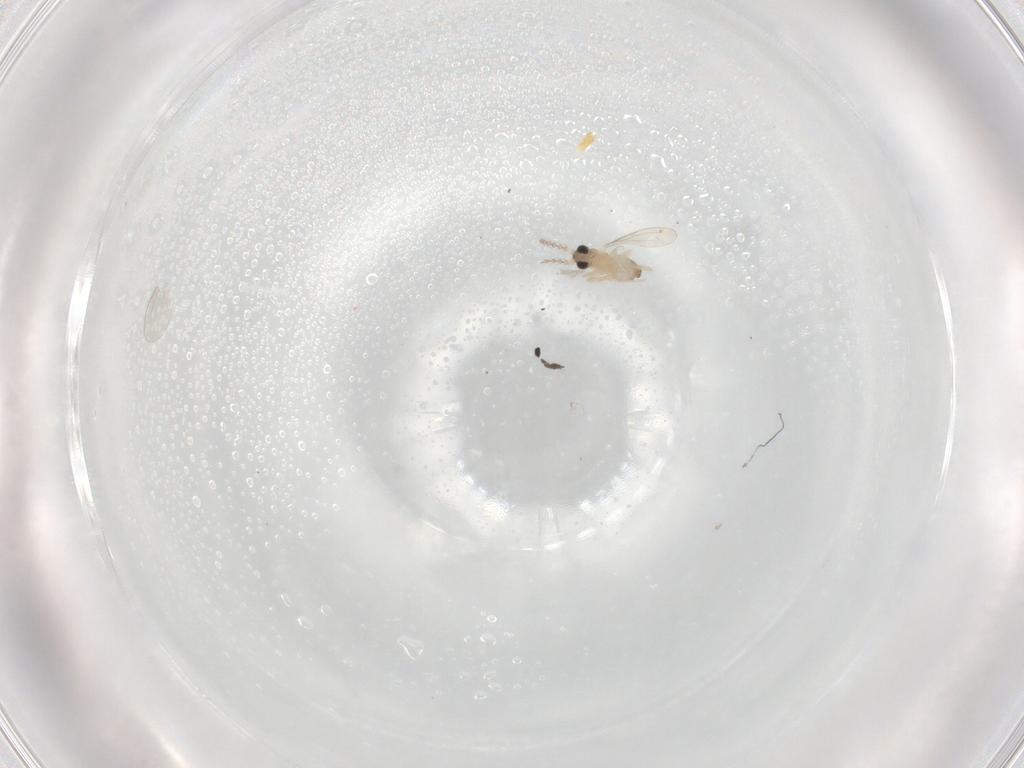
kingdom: Animalia
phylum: Arthropoda
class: Insecta
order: Diptera
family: Cecidomyiidae
